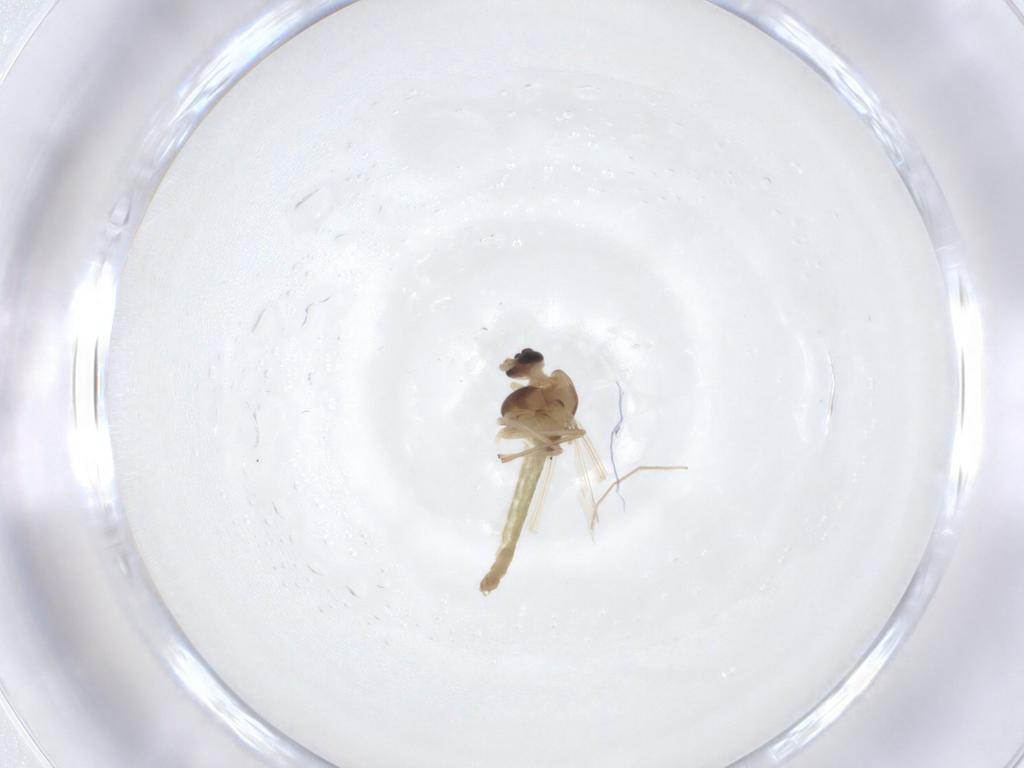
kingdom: Animalia
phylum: Arthropoda
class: Insecta
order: Diptera
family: Chironomidae
